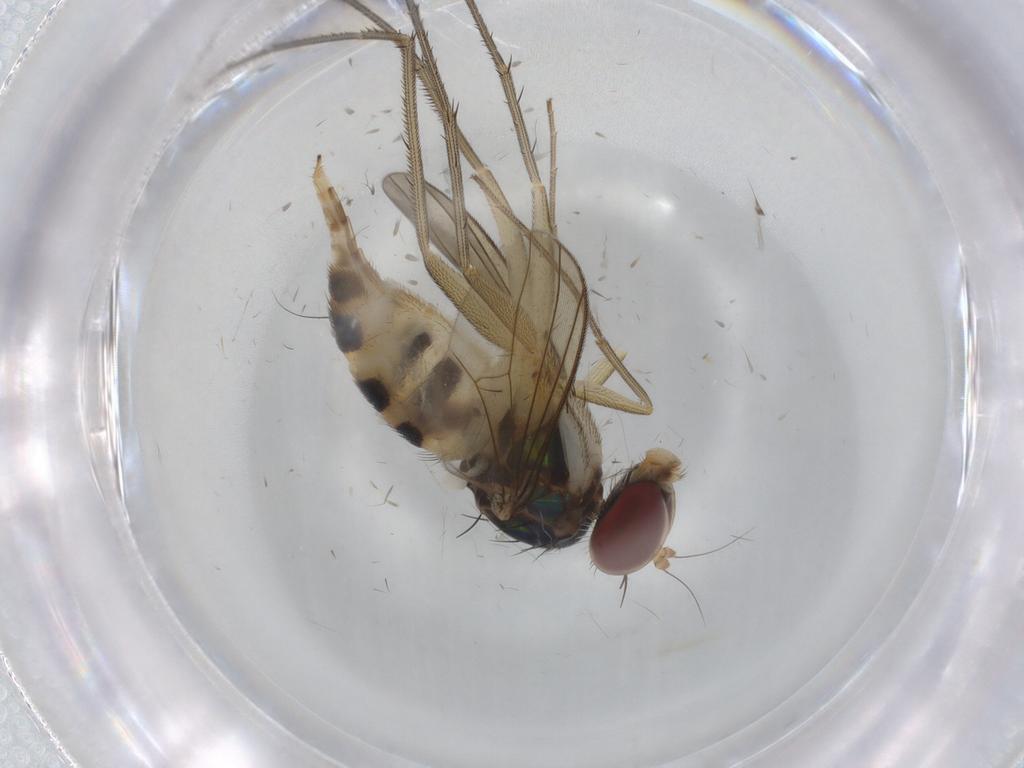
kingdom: Animalia
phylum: Arthropoda
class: Insecta
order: Diptera
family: Dolichopodidae
